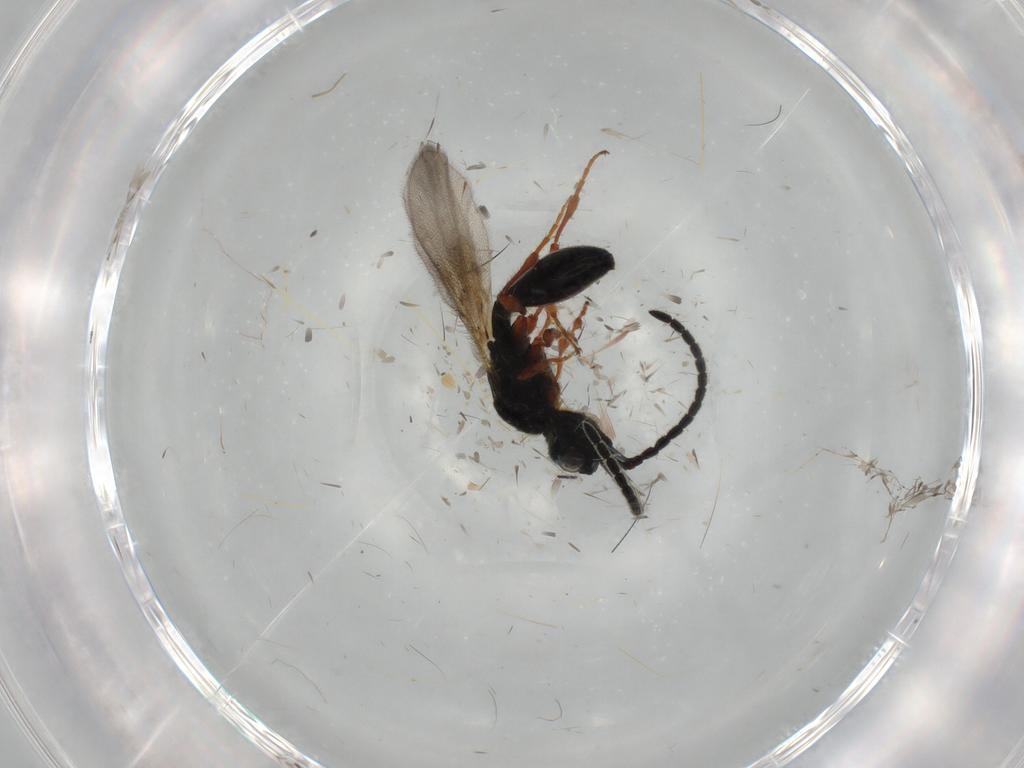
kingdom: Animalia
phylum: Arthropoda
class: Insecta
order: Hymenoptera
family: Diapriidae
